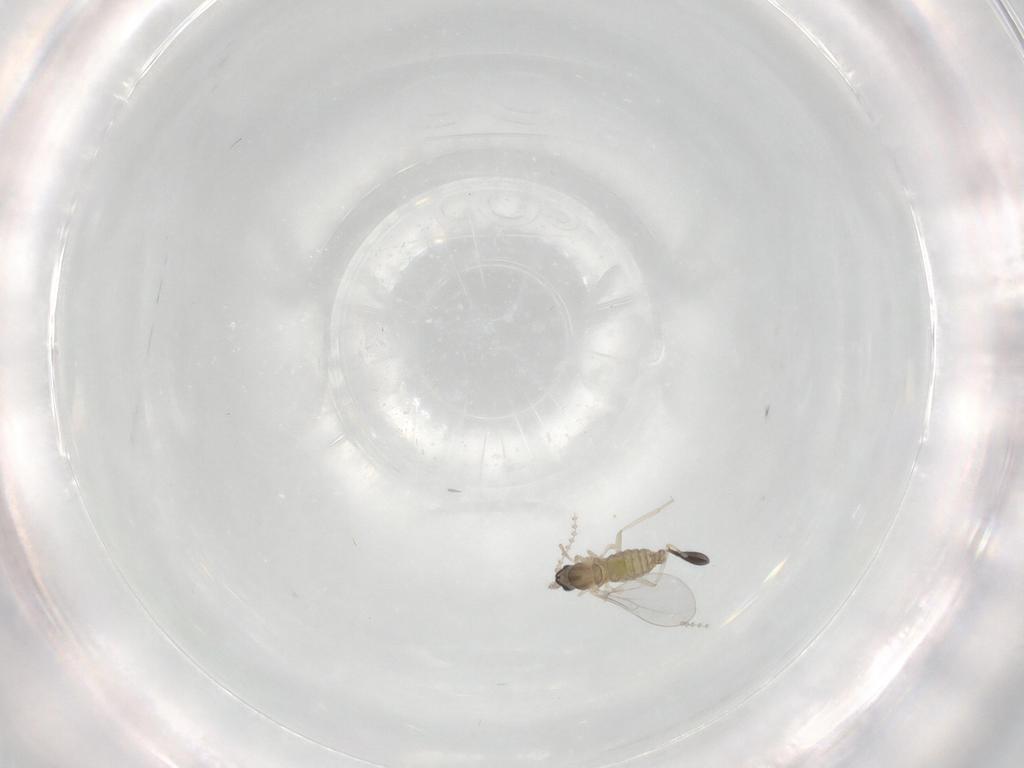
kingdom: Animalia
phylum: Arthropoda
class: Insecta
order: Diptera
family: Cecidomyiidae
